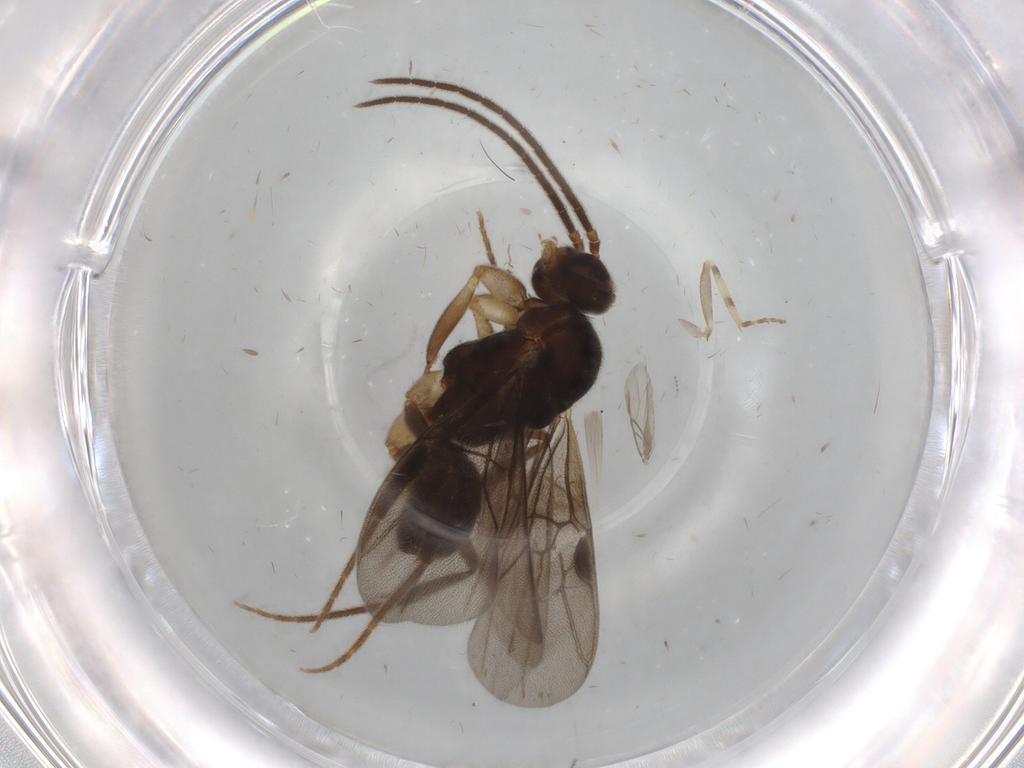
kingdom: Animalia
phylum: Arthropoda
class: Insecta
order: Hymenoptera
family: Formicidae
